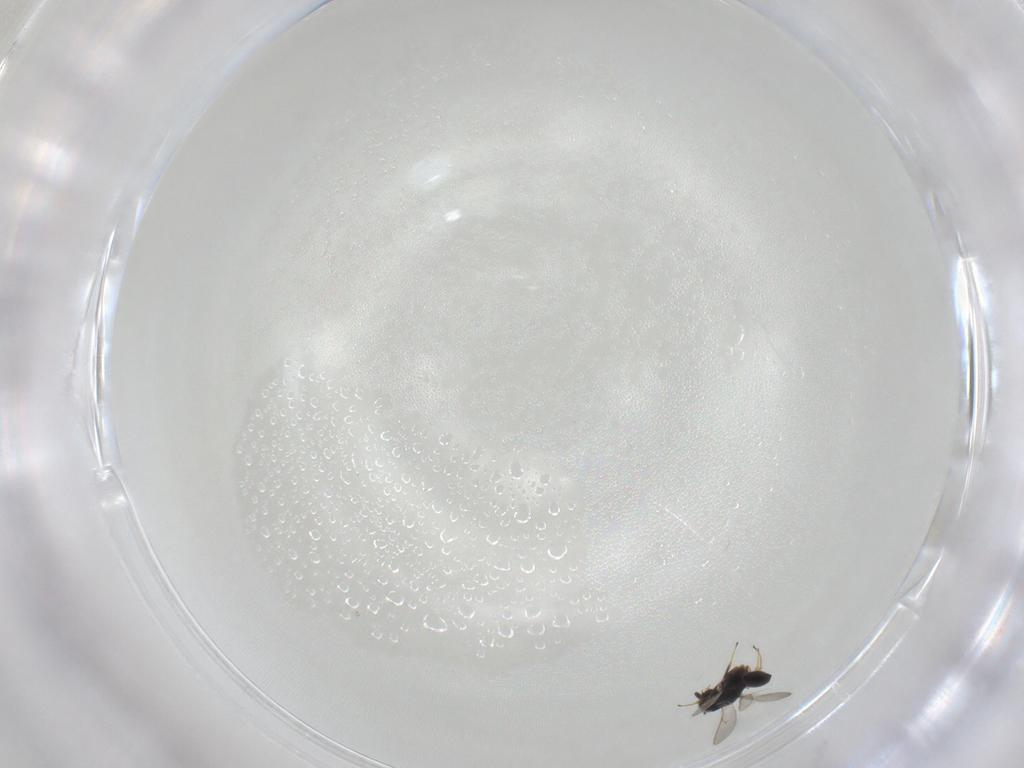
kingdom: Animalia
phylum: Arthropoda
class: Insecta
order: Hymenoptera
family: Scelionidae
